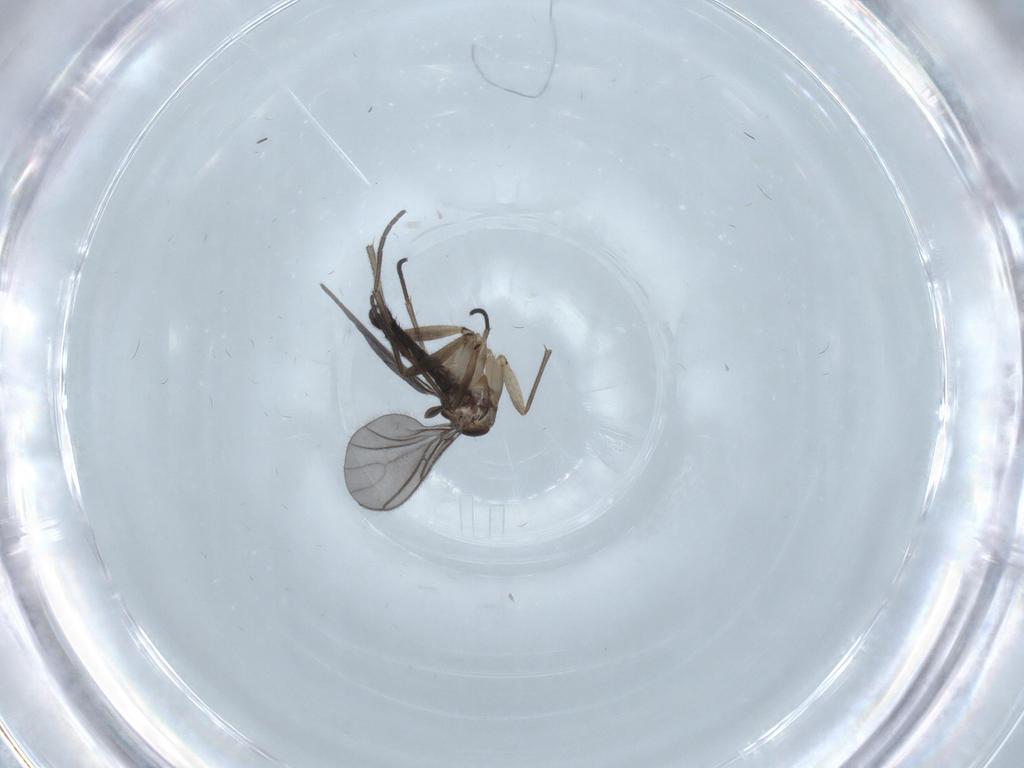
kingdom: Animalia
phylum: Arthropoda
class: Insecta
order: Diptera
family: Sciaridae
